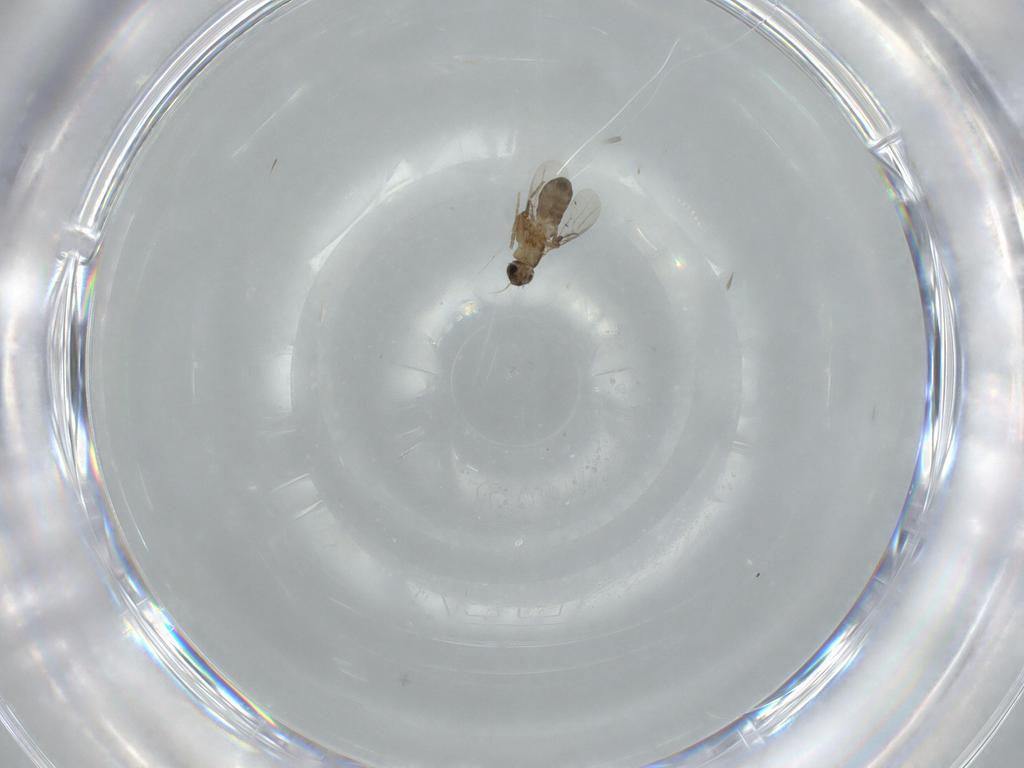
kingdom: Animalia
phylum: Arthropoda
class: Insecta
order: Diptera
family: Phoridae
